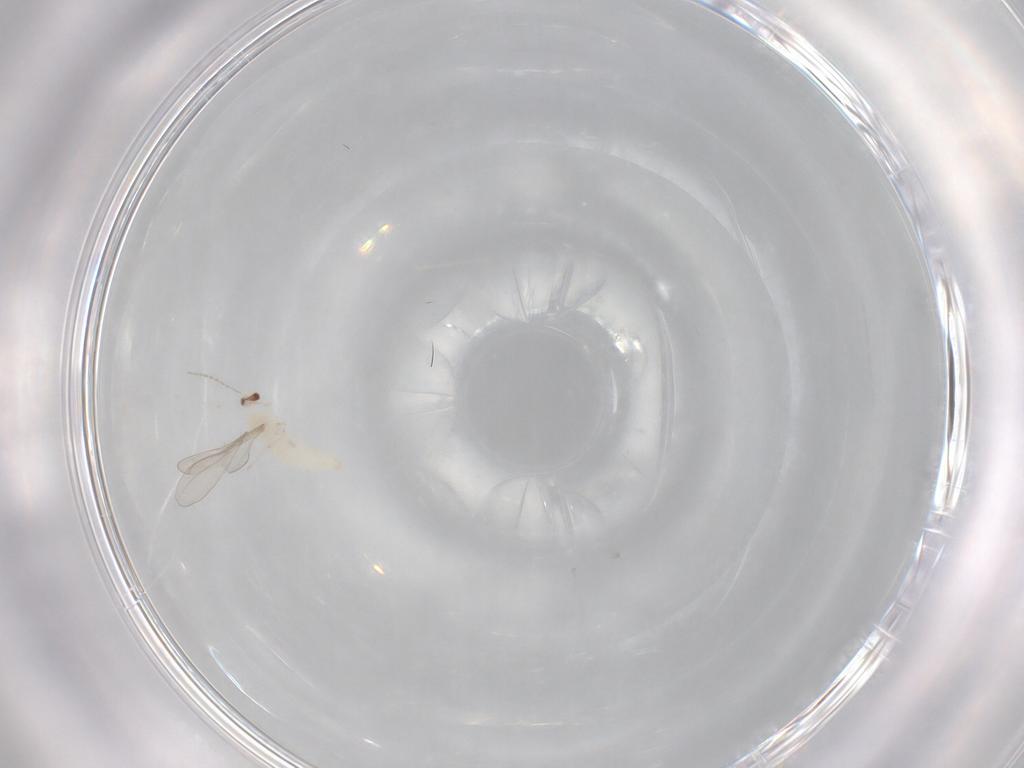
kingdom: Animalia
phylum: Arthropoda
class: Insecta
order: Diptera
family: Cecidomyiidae
